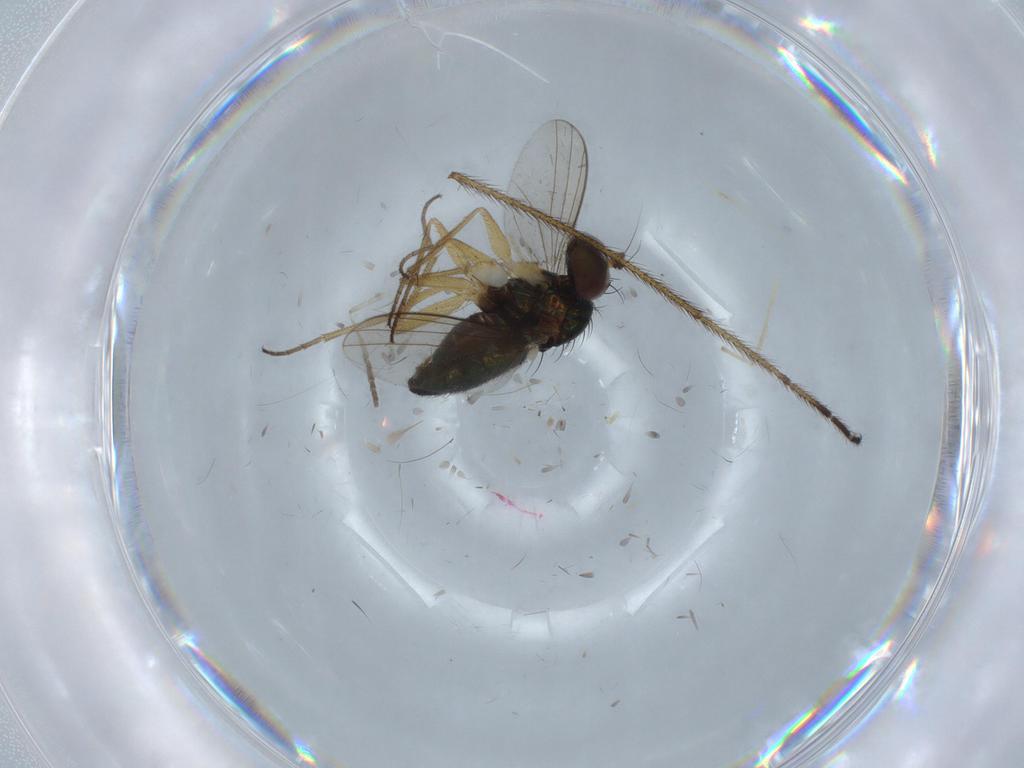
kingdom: Animalia
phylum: Arthropoda
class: Insecta
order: Diptera
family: Psychodidae
